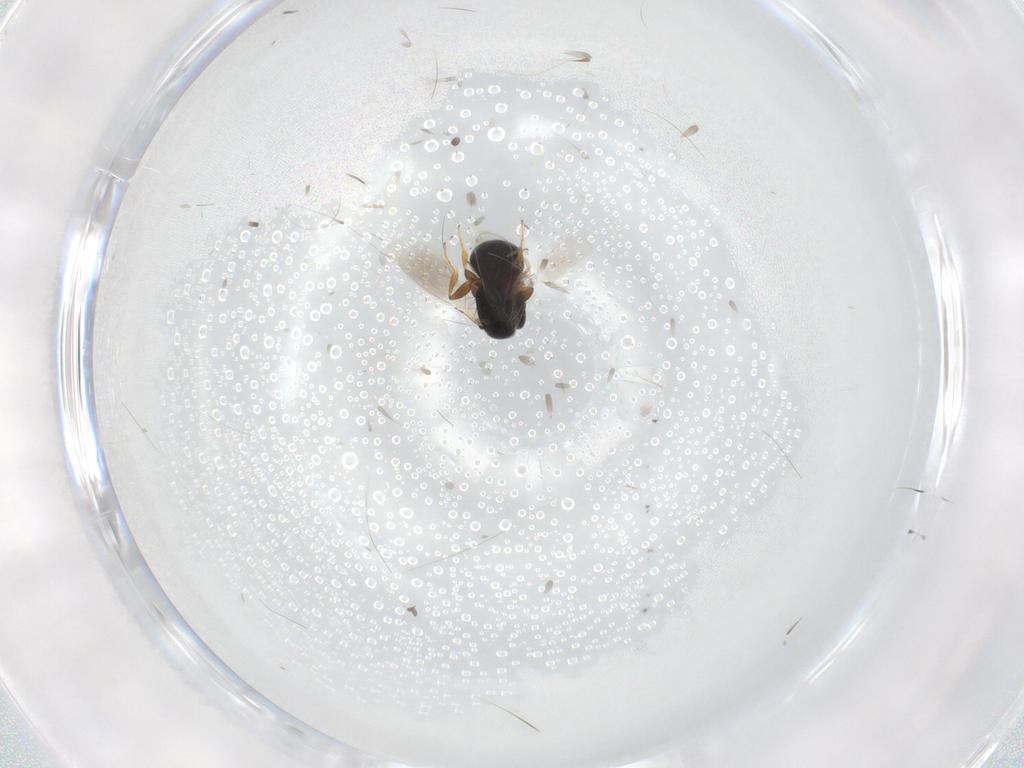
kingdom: Animalia
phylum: Arthropoda
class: Insecta
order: Hymenoptera
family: Bethylidae
